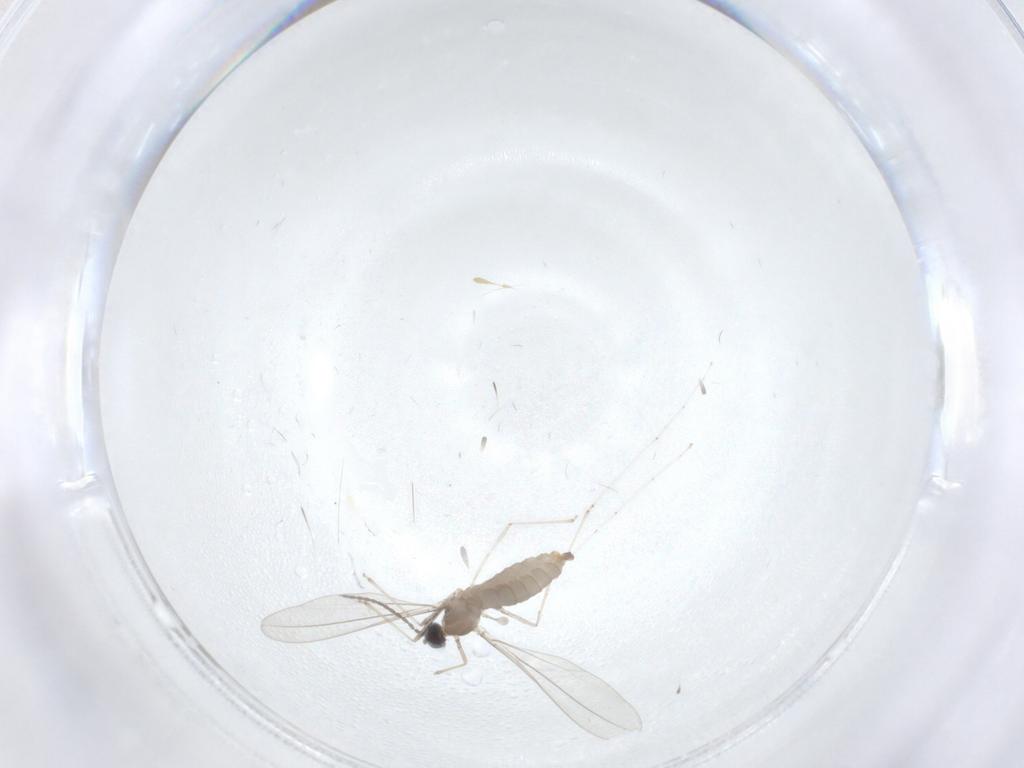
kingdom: Animalia
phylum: Arthropoda
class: Insecta
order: Diptera
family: Cecidomyiidae
